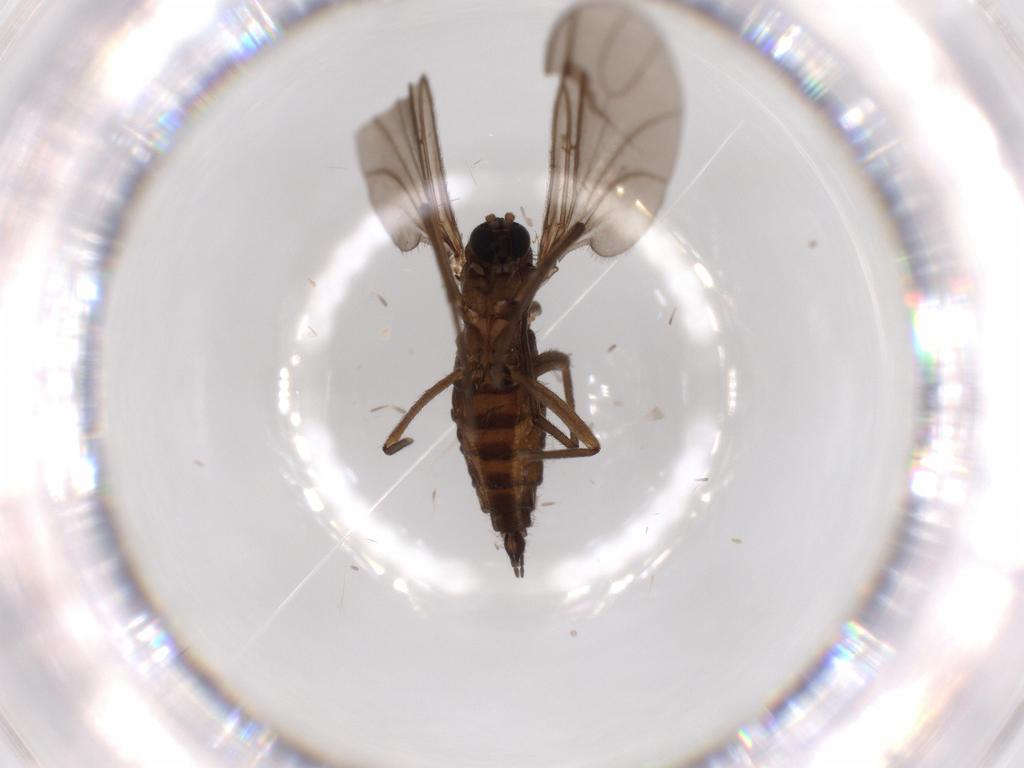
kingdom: Animalia
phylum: Arthropoda
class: Insecta
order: Diptera
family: Sciaridae
